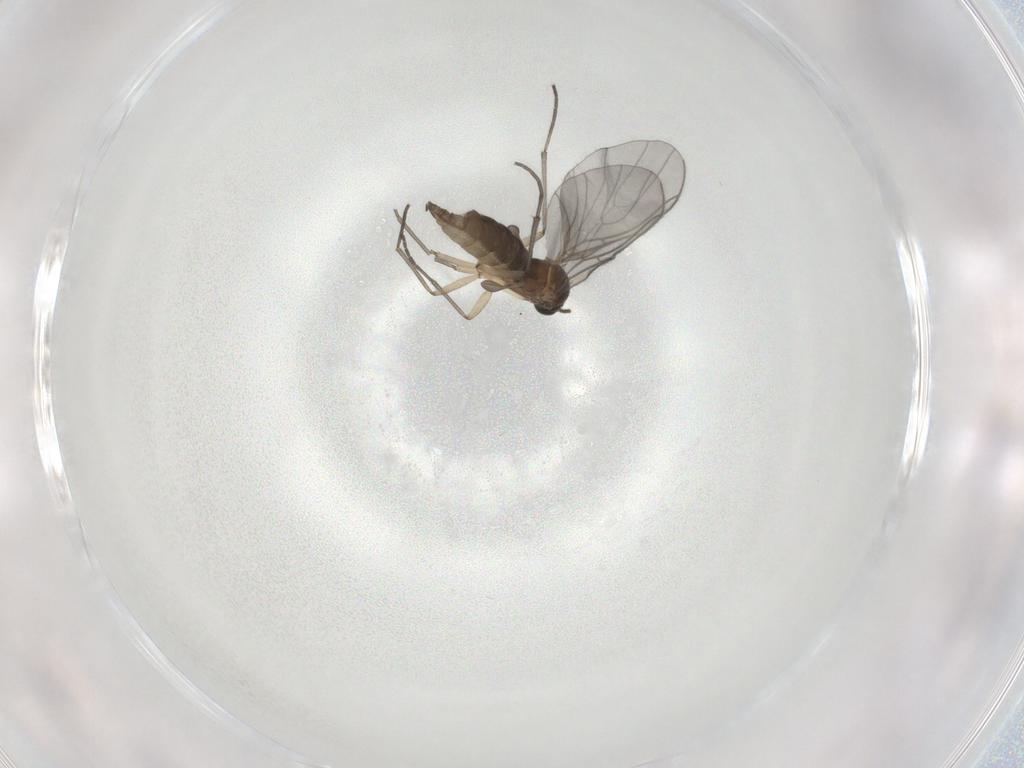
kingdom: Animalia
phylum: Arthropoda
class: Insecta
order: Diptera
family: Sciaridae
